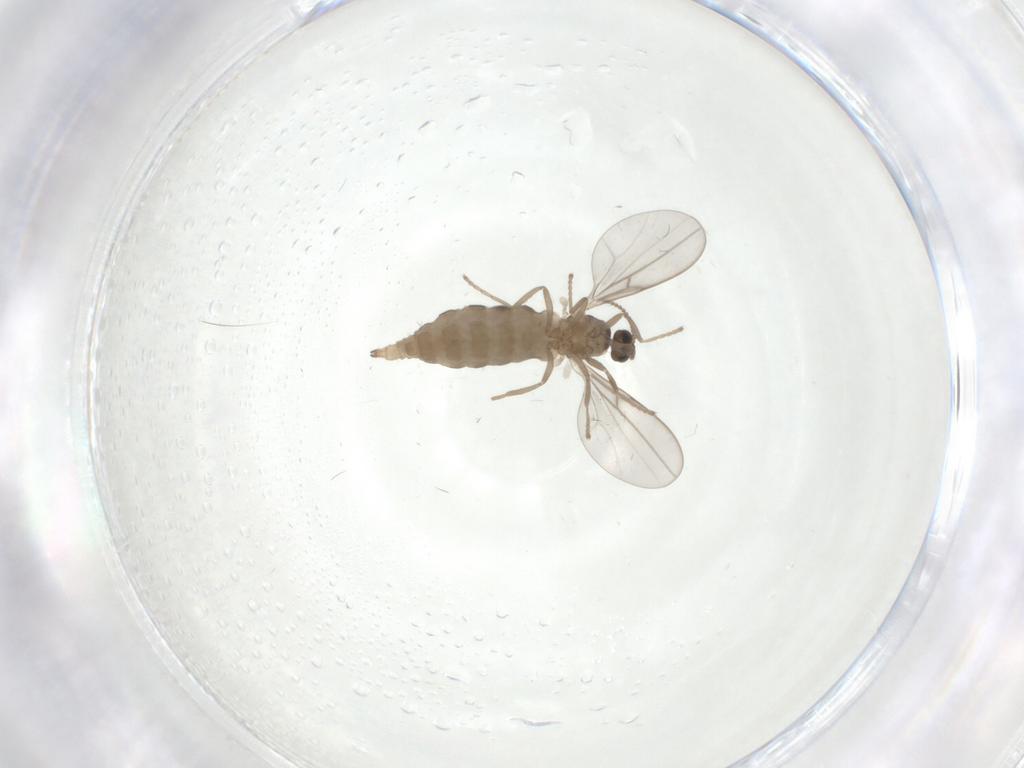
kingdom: Animalia
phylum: Arthropoda
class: Insecta
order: Diptera
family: Cecidomyiidae
